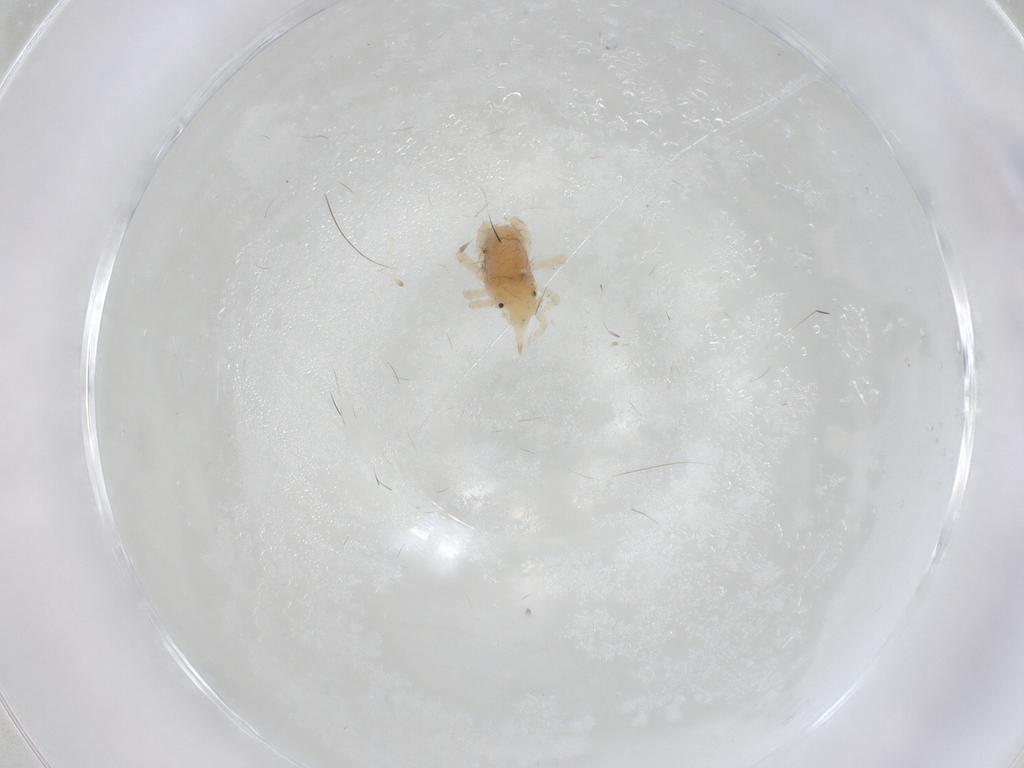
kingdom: Animalia
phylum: Arthropoda
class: Arachnida
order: Trombidiformes
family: Bdellidae
